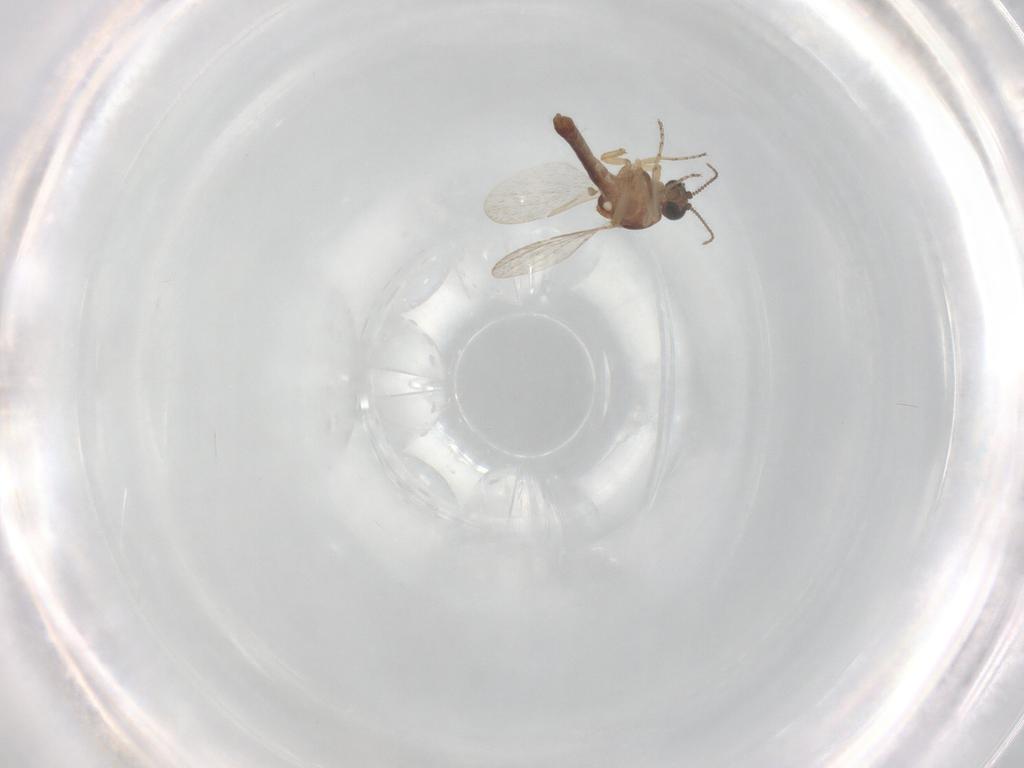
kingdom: Animalia
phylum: Arthropoda
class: Insecta
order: Diptera
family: Ceratopogonidae
